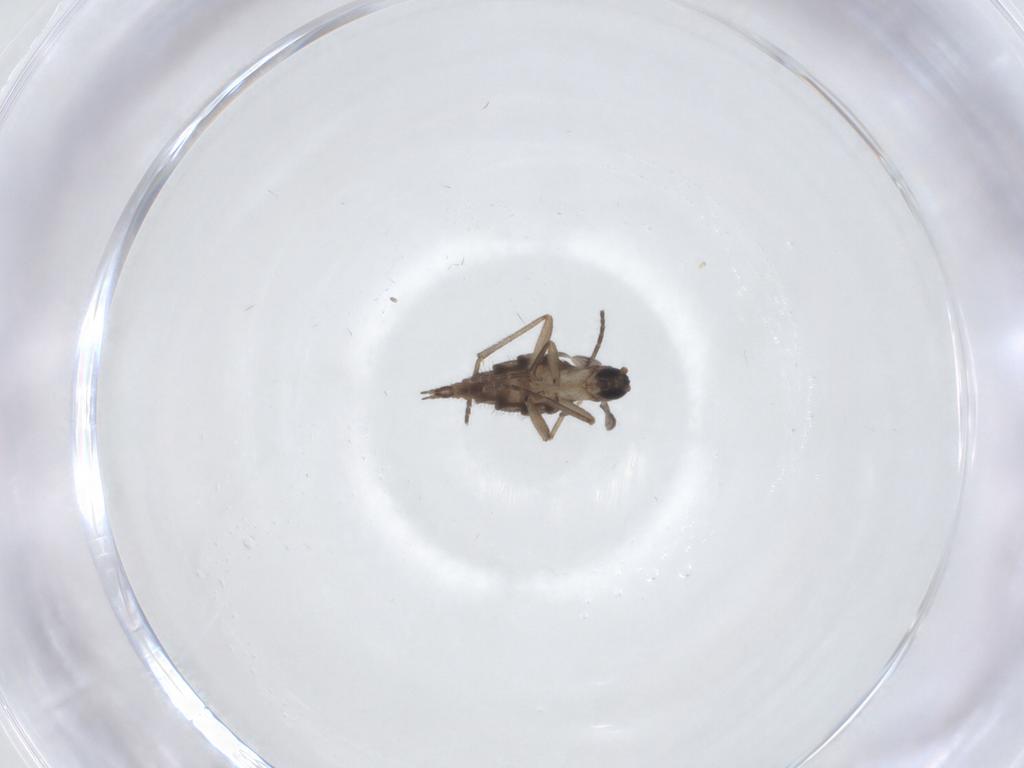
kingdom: Animalia
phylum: Arthropoda
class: Insecta
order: Diptera
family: Sciaridae
